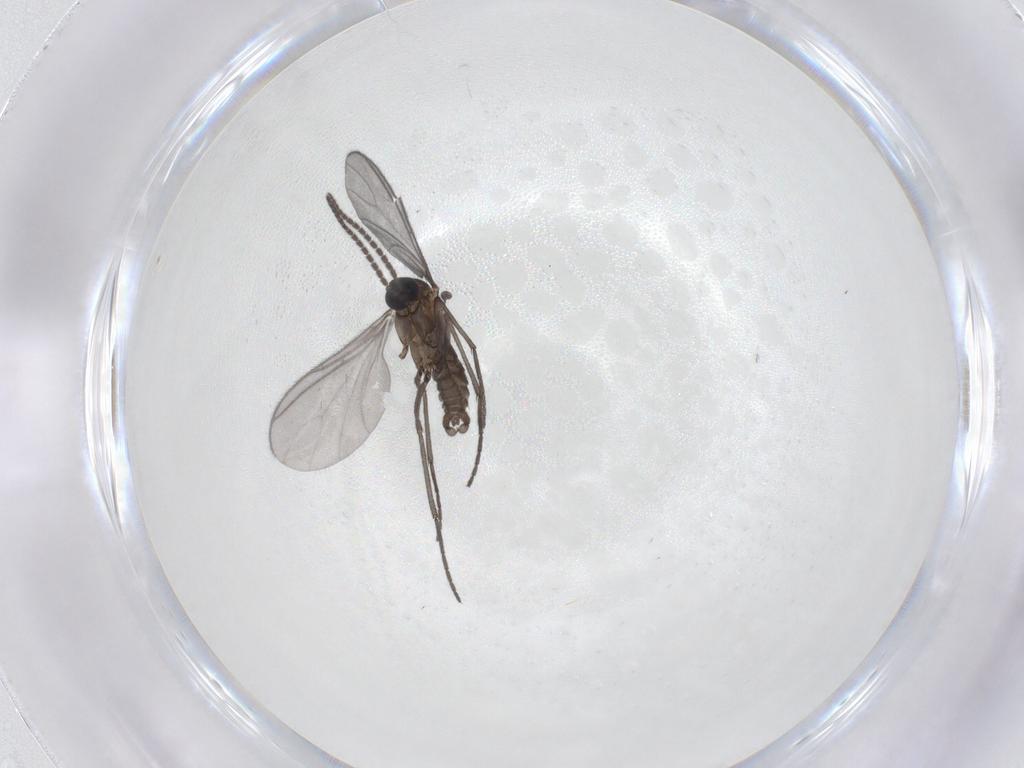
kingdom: Animalia
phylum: Arthropoda
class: Insecta
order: Diptera
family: Sciaridae
